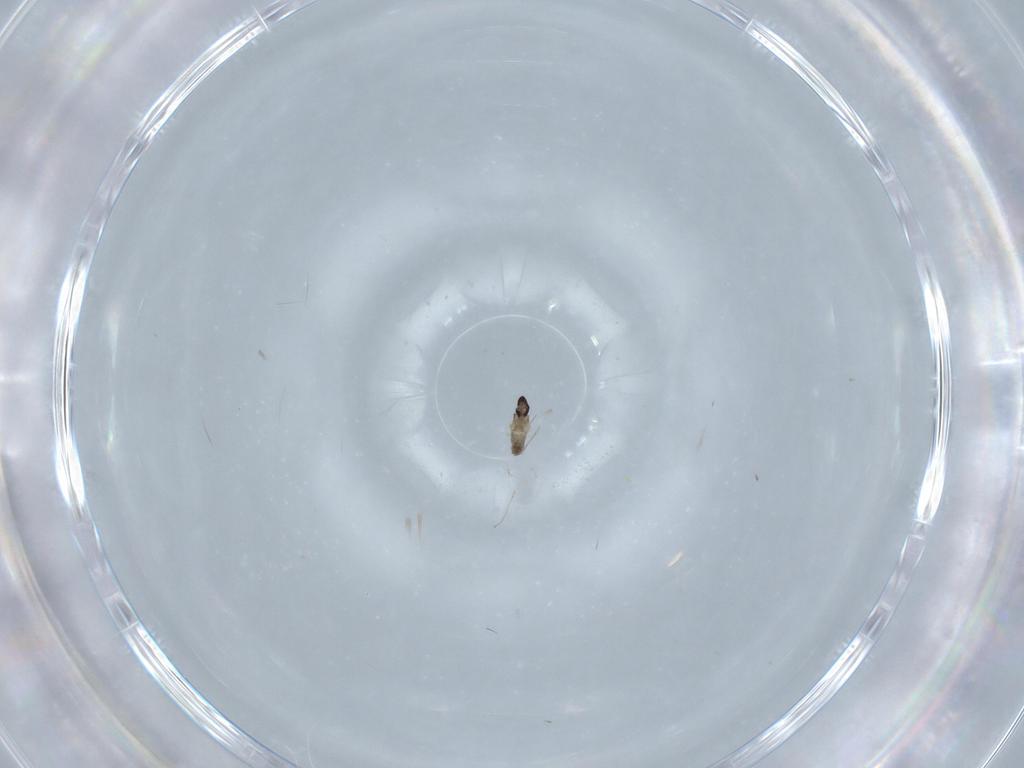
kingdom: Animalia
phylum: Arthropoda
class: Insecta
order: Diptera
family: Cecidomyiidae
